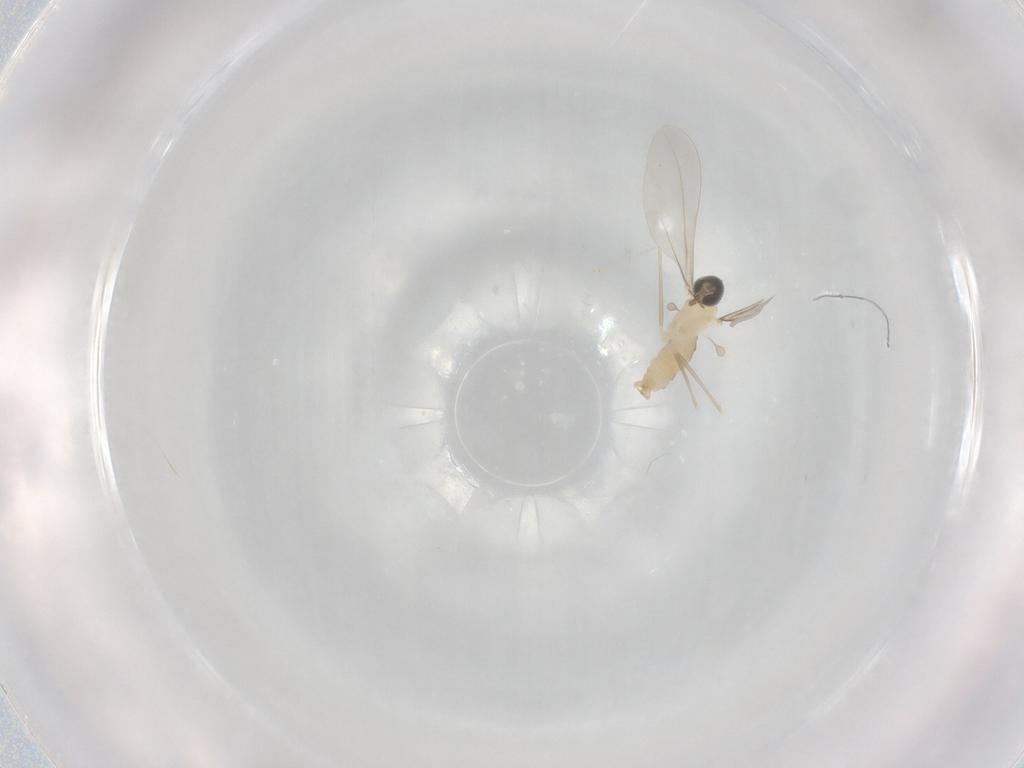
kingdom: Animalia
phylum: Arthropoda
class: Insecta
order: Diptera
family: Cecidomyiidae
